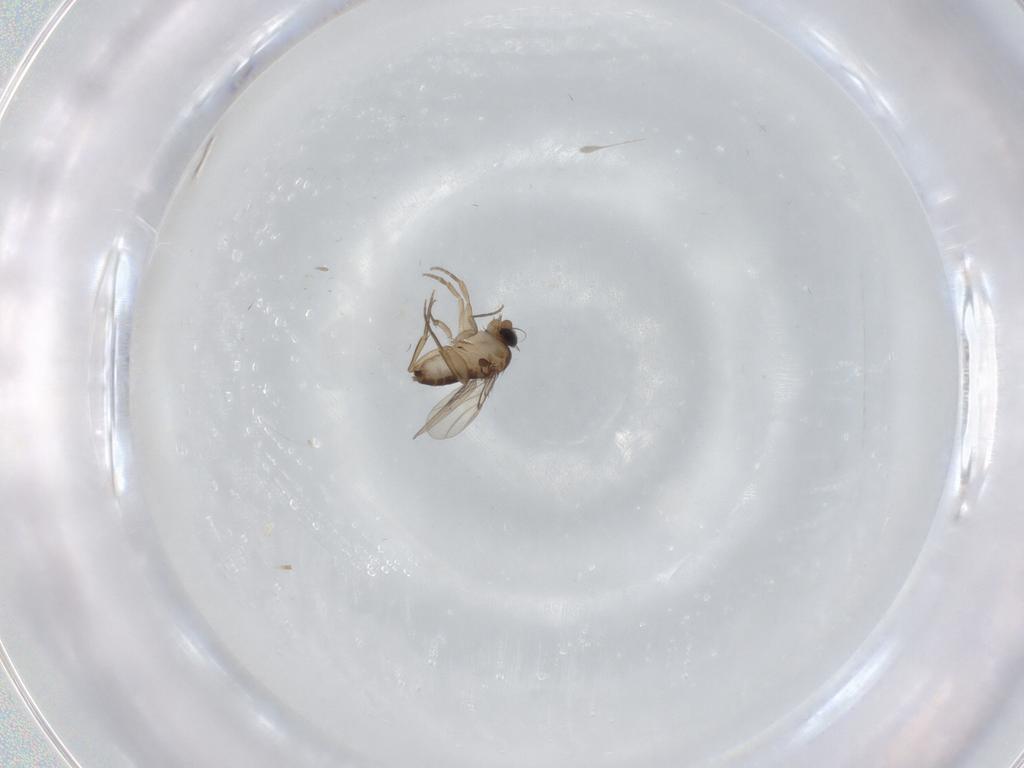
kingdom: Animalia
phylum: Arthropoda
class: Insecta
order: Diptera
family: Phoridae
